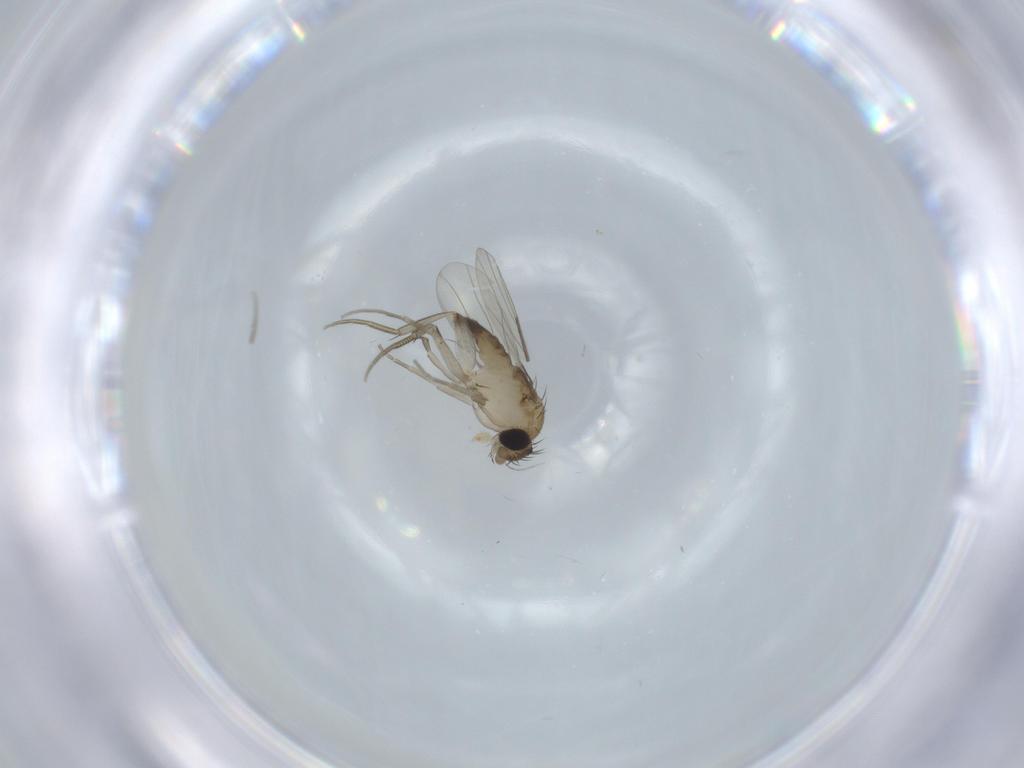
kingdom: Animalia
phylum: Arthropoda
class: Insecta
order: Diptera
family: Phoridae
